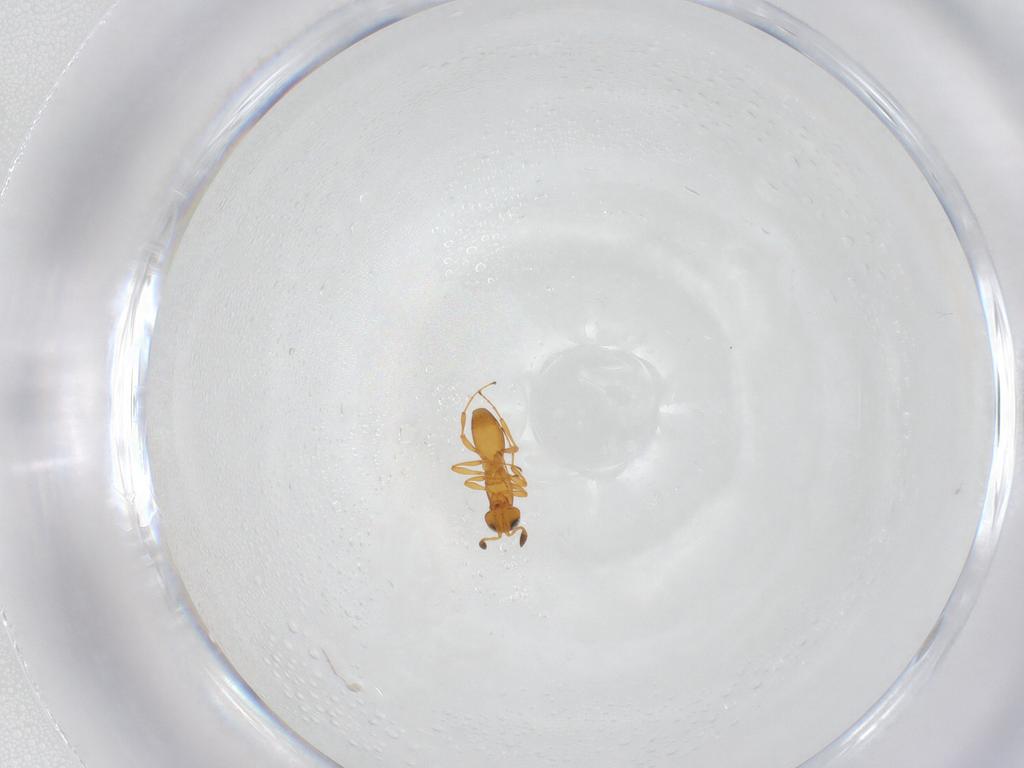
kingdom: Animalia
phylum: Arthropoda
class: Insecta
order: Hymenoptera
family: Platygastridae
